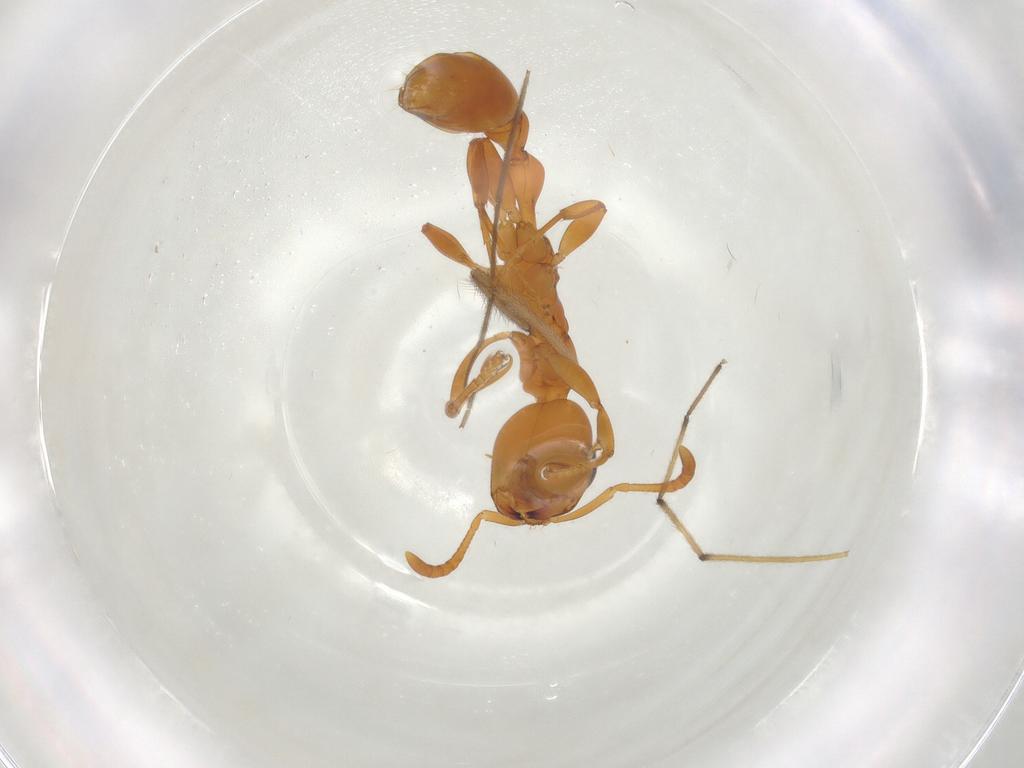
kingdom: Animalia
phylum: Arthropoda
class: Insecta
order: Hymenoptera
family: Formicidae
